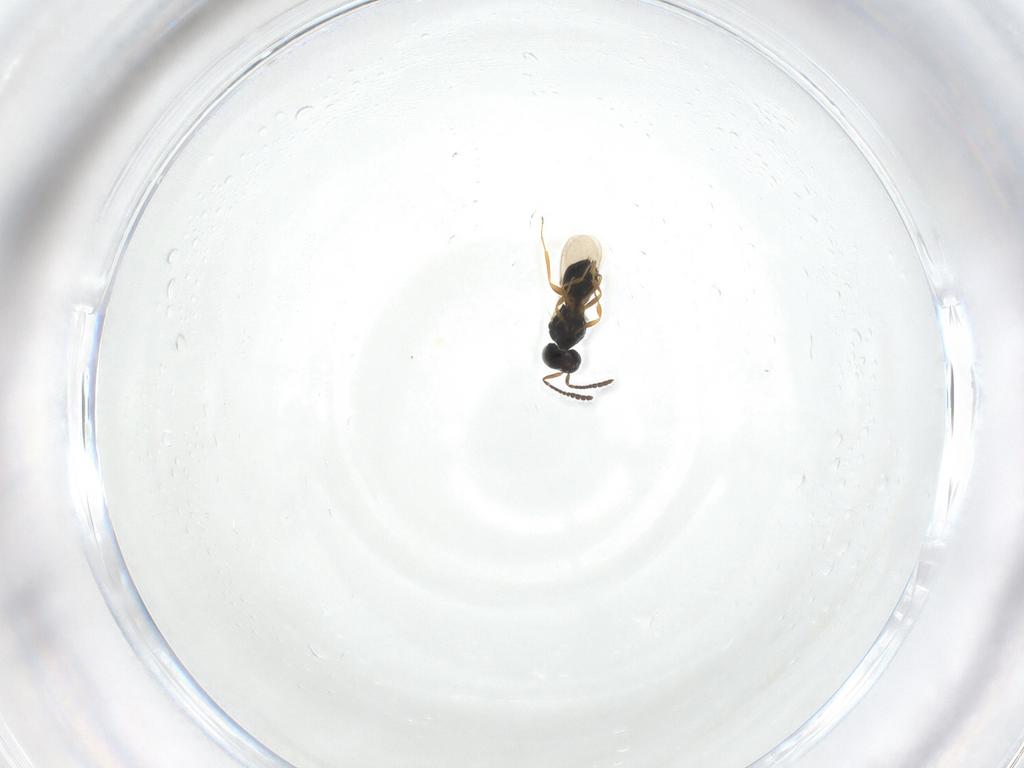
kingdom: Animalia
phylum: Arthropoda
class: Insecta
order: Hymenoptera
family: Scelionidae
